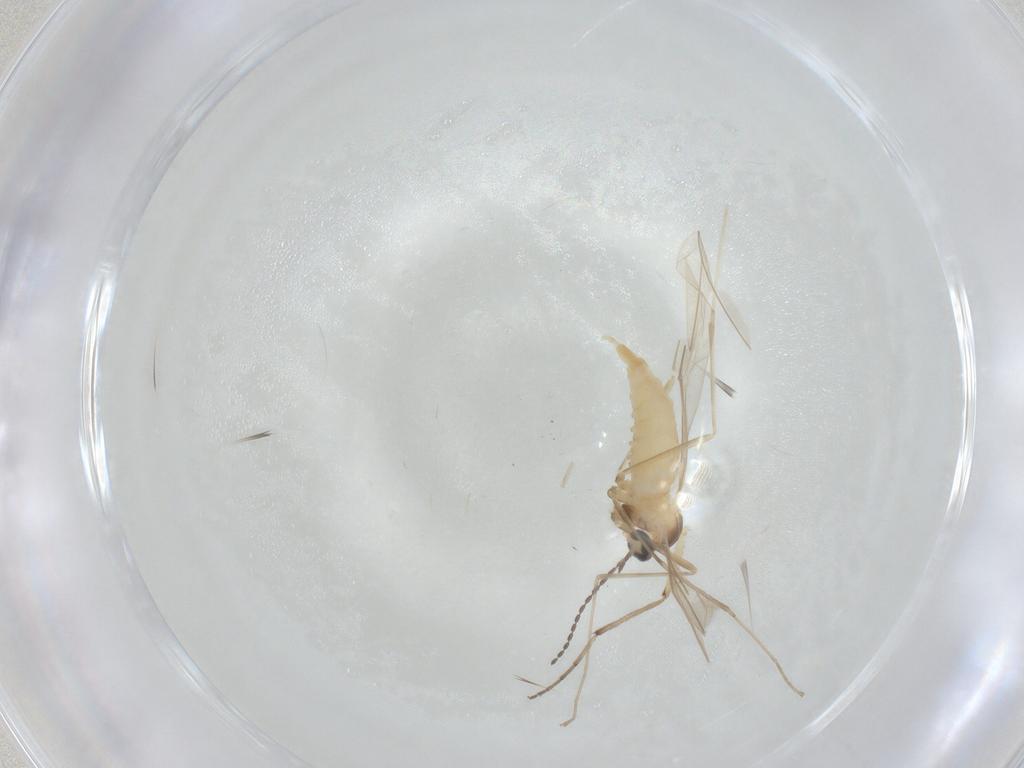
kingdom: Animalia
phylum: Arthropoda
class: Insecta
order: Diptera
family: Cecidomyiidae
